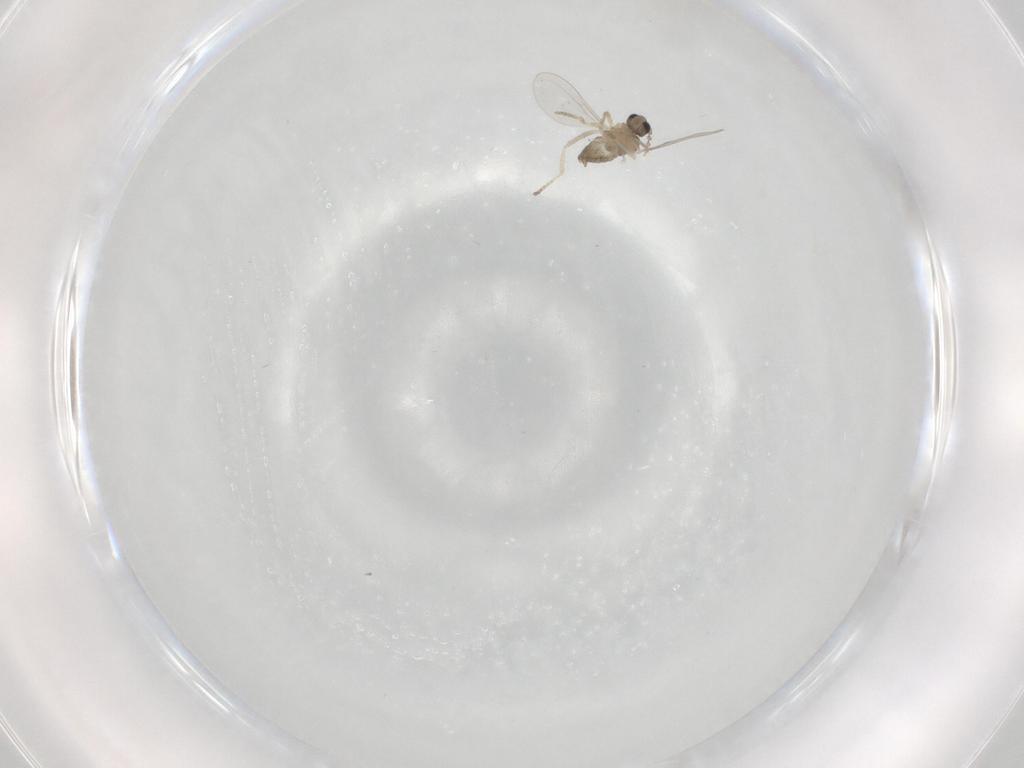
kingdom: Animalia
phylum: Arthropoda
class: Insecta
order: Diptera
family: Cecidomyiidae
